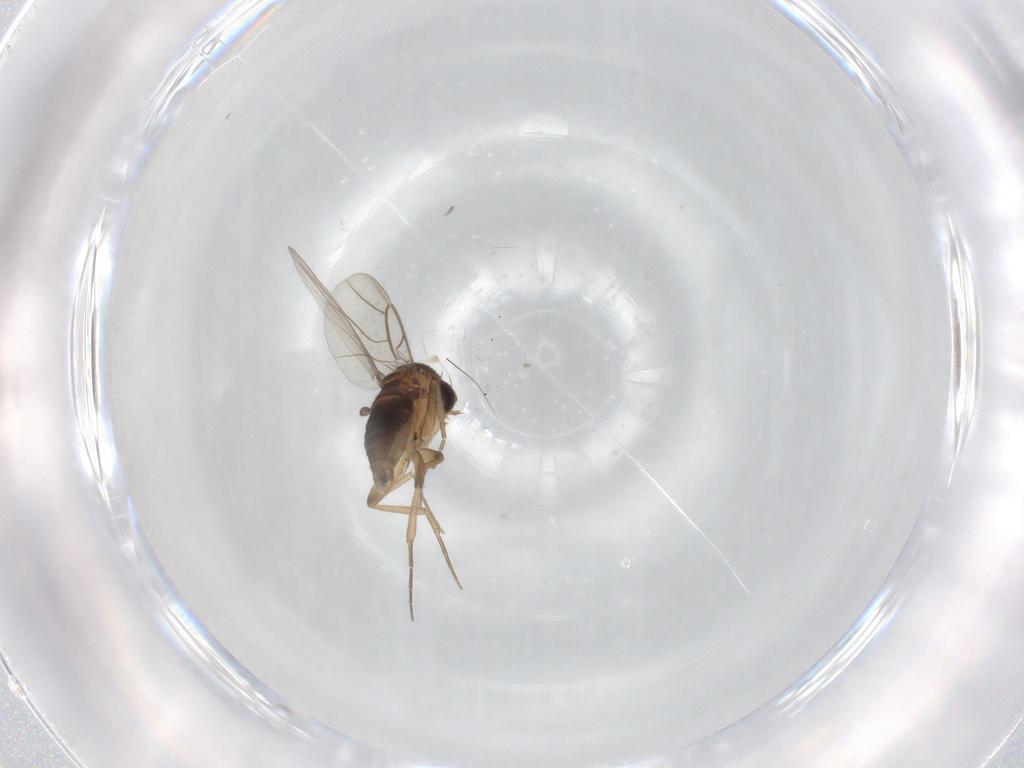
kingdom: Animalia
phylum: Arthropoda
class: Insecta
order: Diptera
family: Phoridae
